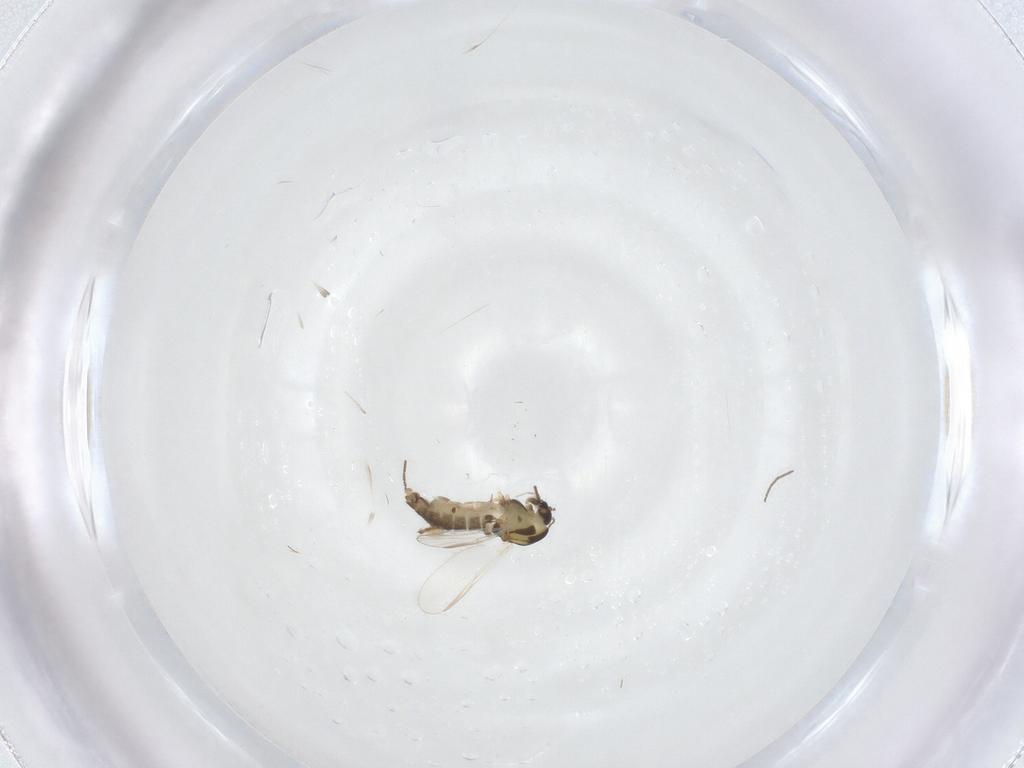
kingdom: Animalia
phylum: Arthropoda
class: Insecta
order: Diptera
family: Chironomidae
